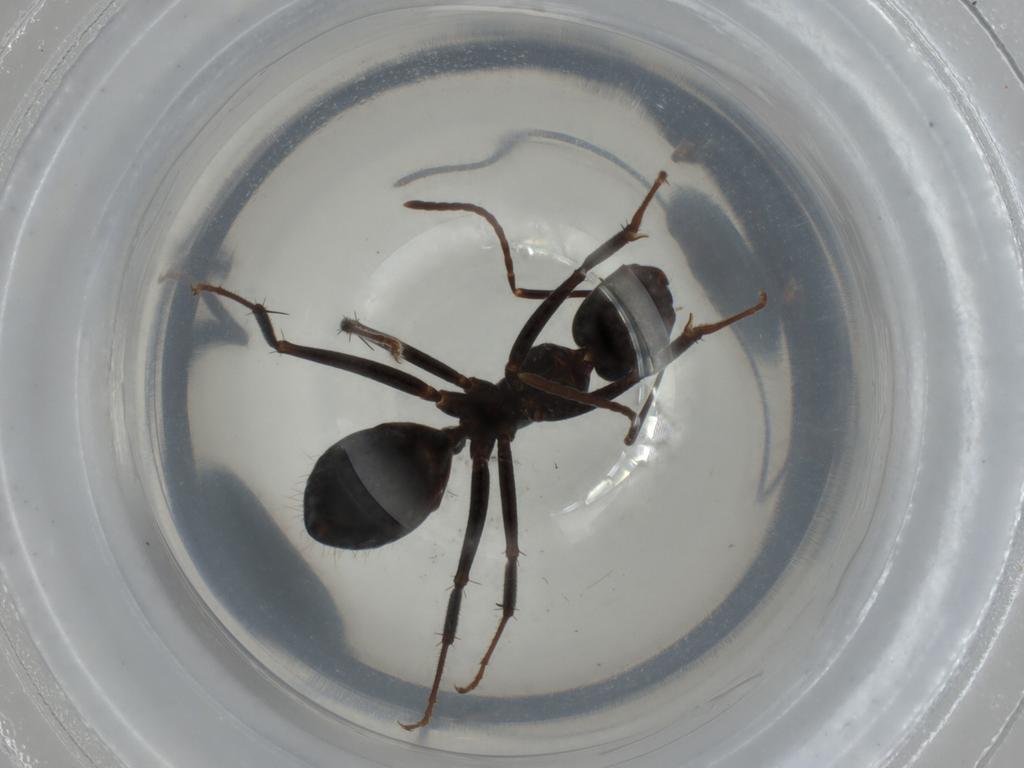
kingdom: Animalia
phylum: Arthropoda
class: Insecta
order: Hymenoptera
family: Formicidae
